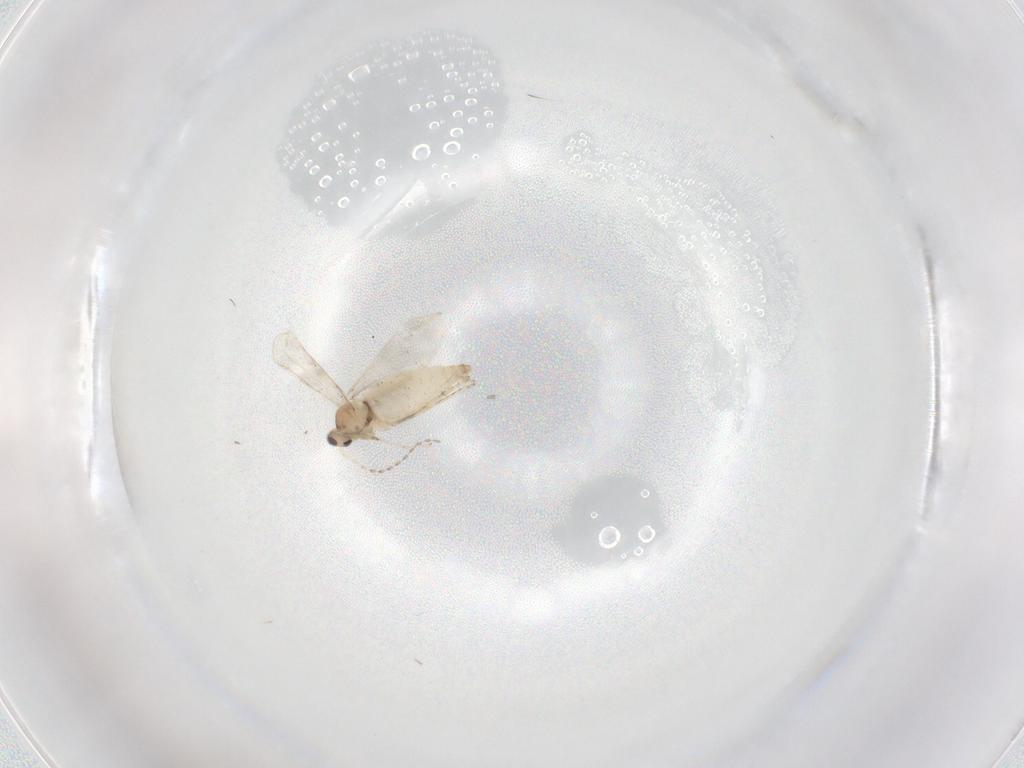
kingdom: Animalia
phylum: Arthropoda
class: Insecta
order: Diptera
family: Cecidomyiidae
